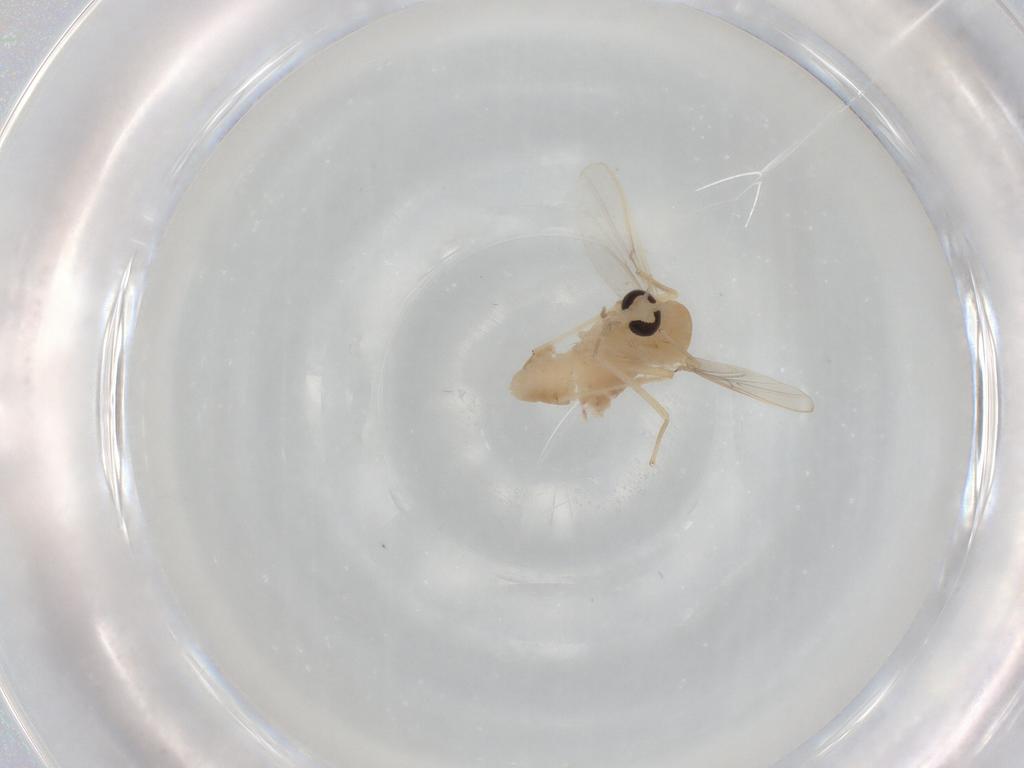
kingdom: Animalia
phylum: Arthropoda
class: Insecta
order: Diptera
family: Chironomidae
